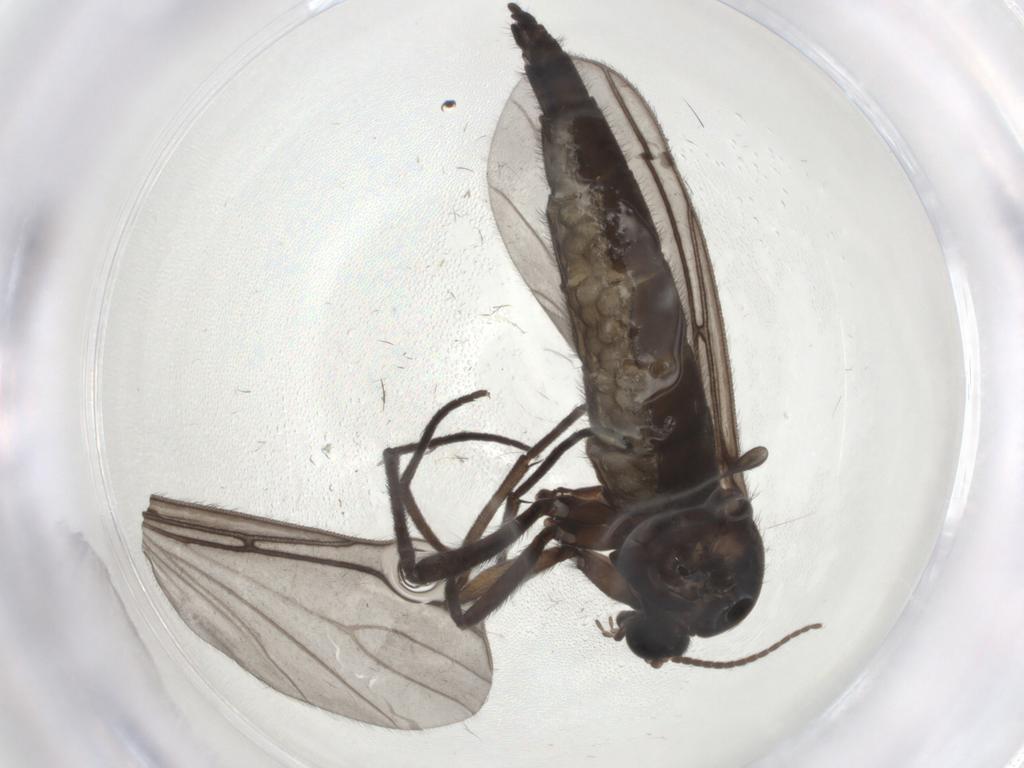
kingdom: Animalia
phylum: Arthropoda
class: Insecta
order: Diptera
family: Sciaridae
